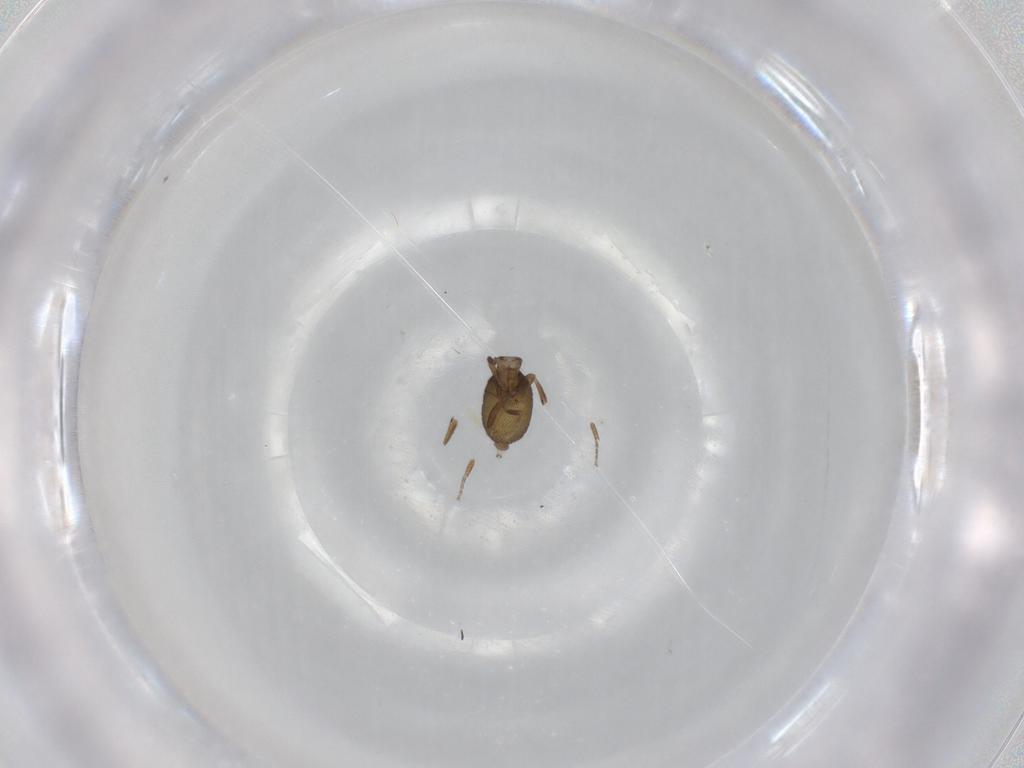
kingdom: Animalia
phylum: Arthropoda
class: Insecta
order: Diptera
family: Phoridae
